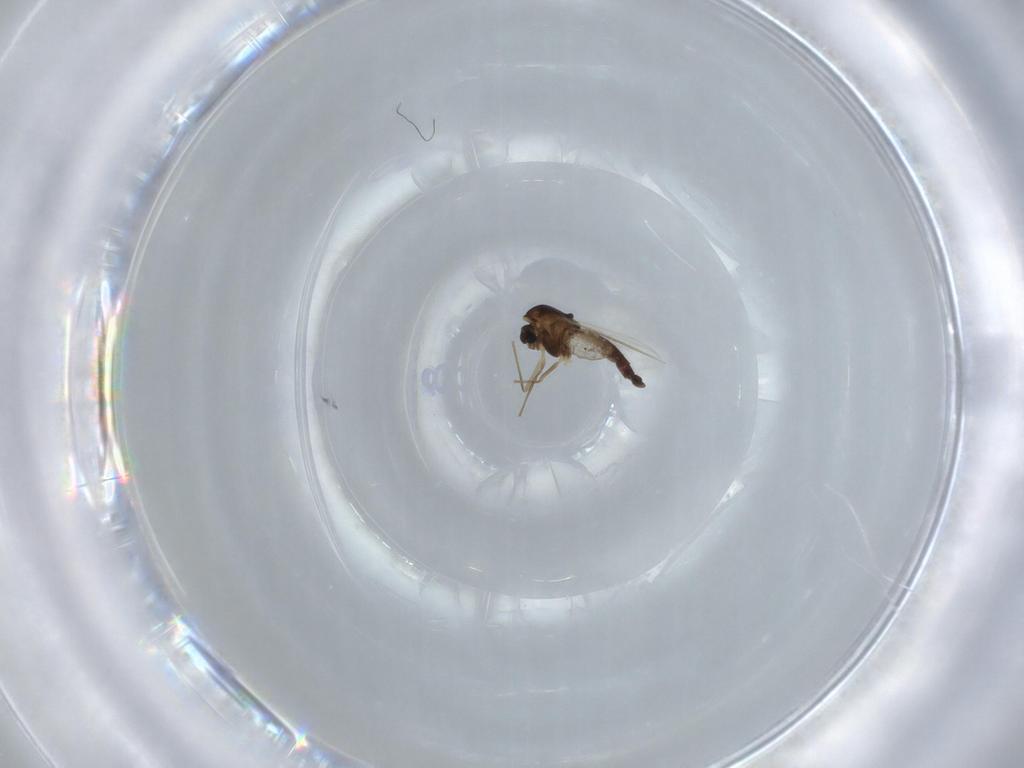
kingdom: Animalia
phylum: Arthropoda
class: Insecta
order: Diptera
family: Chironomidae
